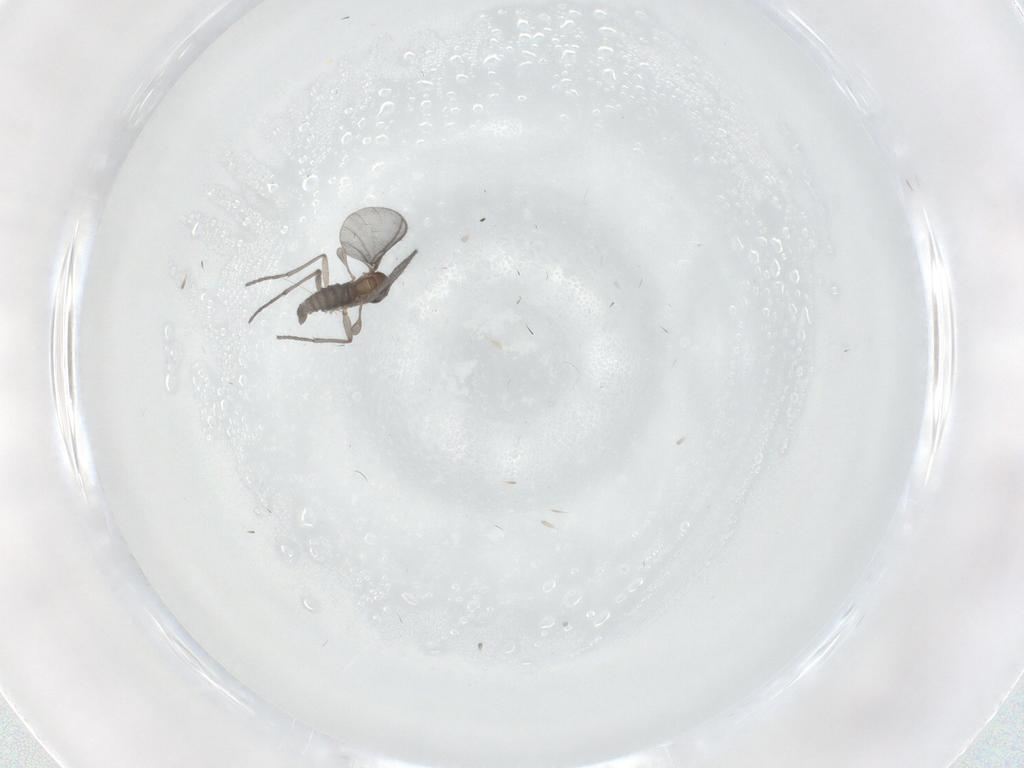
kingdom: Animalia
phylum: Arthropoda
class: Insecta
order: Diptera
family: Sciaridae
